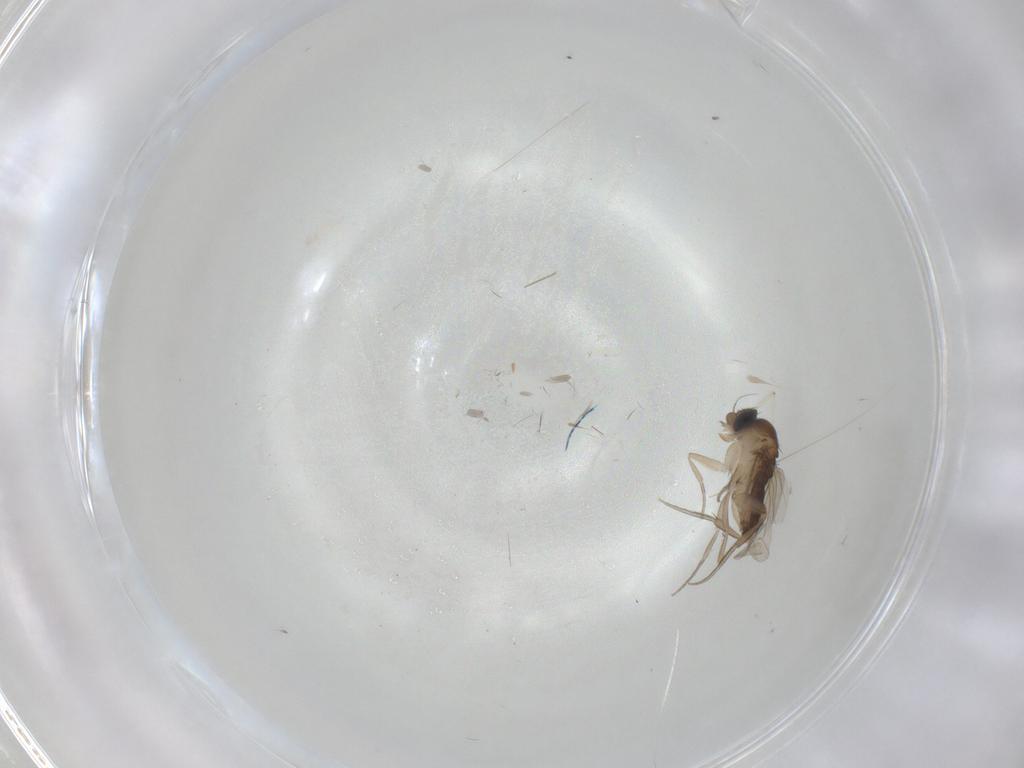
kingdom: Animalia
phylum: Arthropoda
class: Insecta
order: Diptera
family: Phoridae
